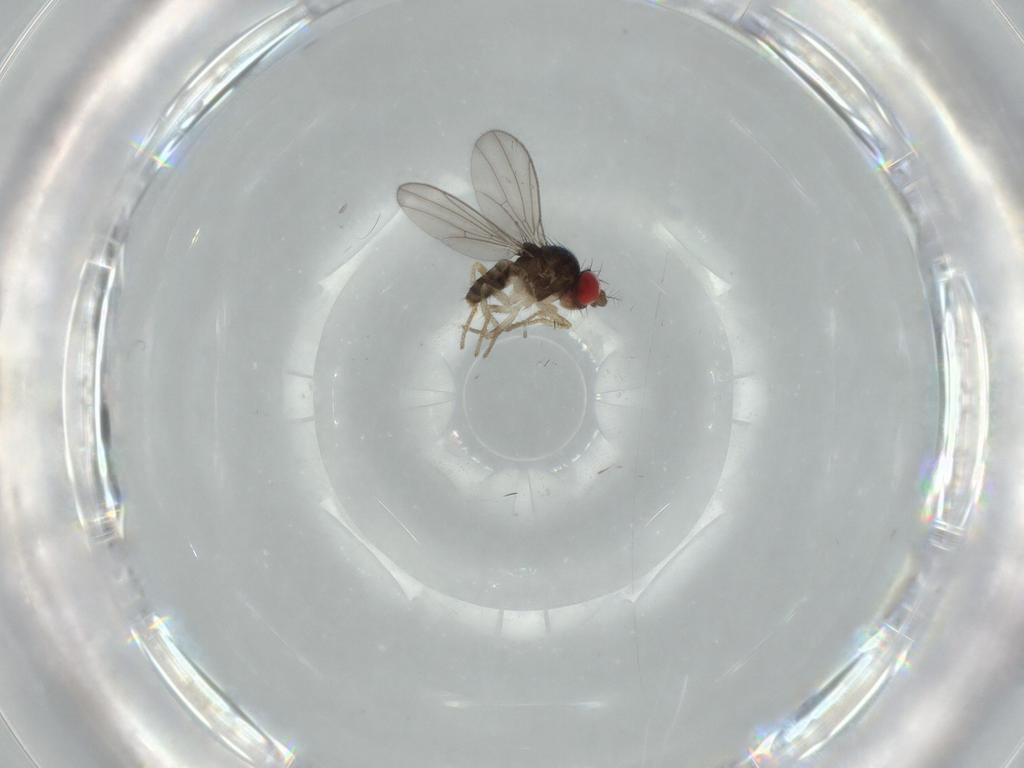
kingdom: Animalia
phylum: Arthropoda
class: Insecta
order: Diptera
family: Drosophilidae
